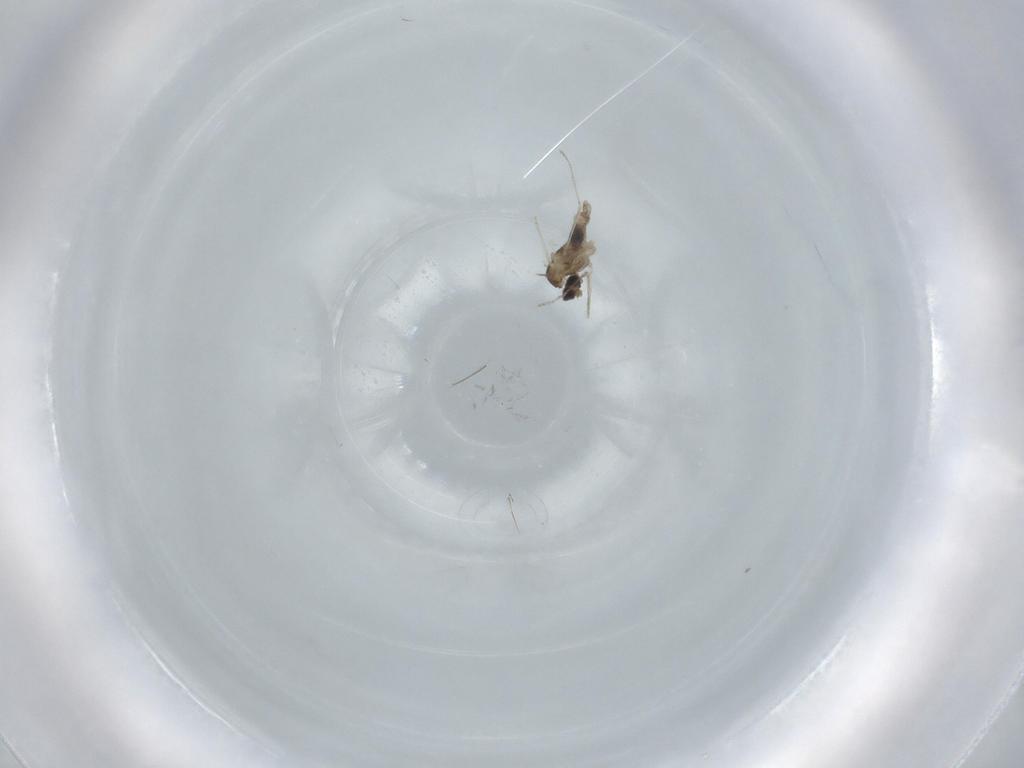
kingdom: Animalia
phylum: Arthropoda
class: Insecta
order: Diptera
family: Cecidomyiidae
